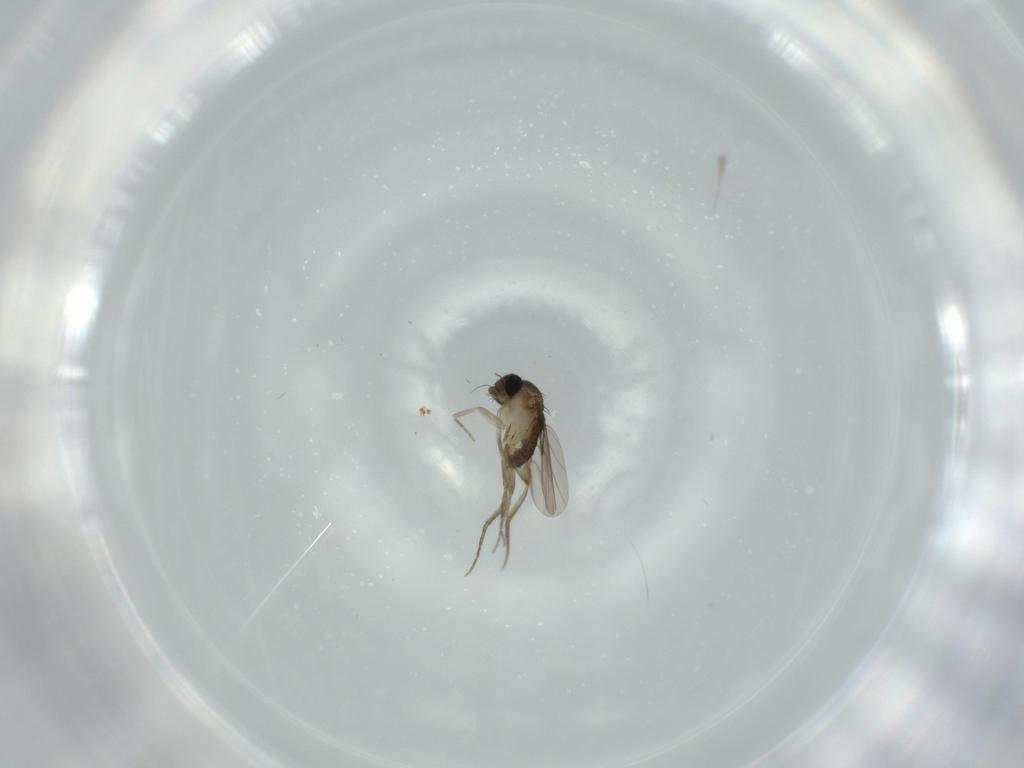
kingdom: Animalia
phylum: Arthropoda
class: Insecta
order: Diptera
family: Phoridae
